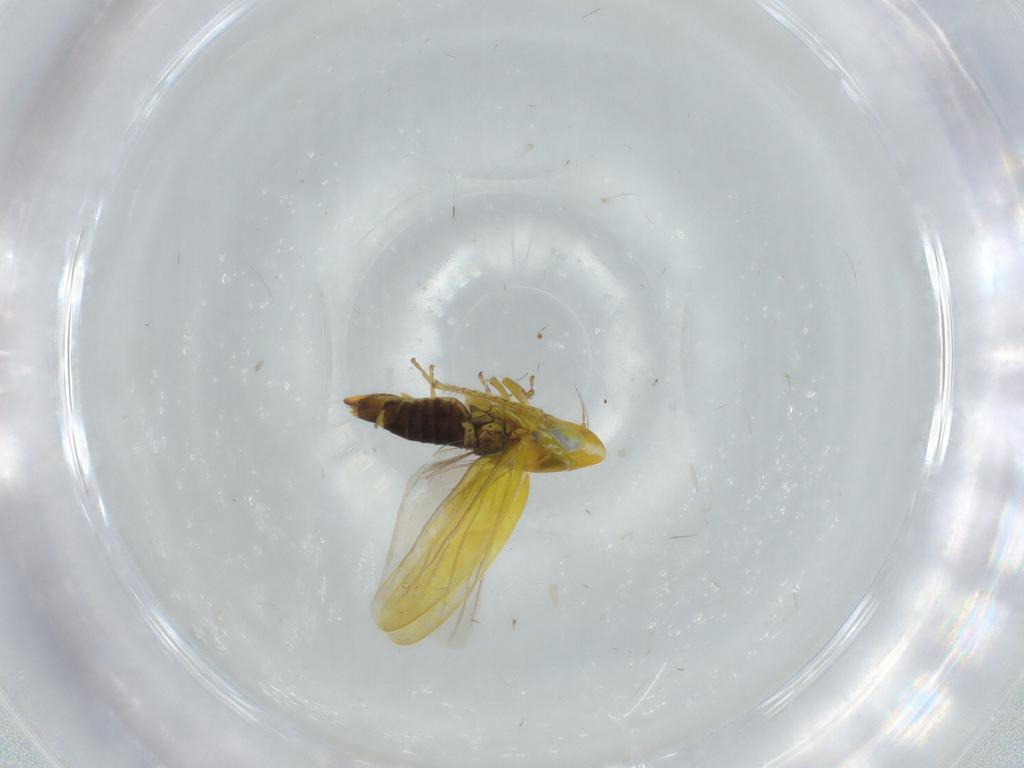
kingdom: Animalia
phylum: Arthropoda
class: Insecta
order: Hemiptera
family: Cicadellidae
